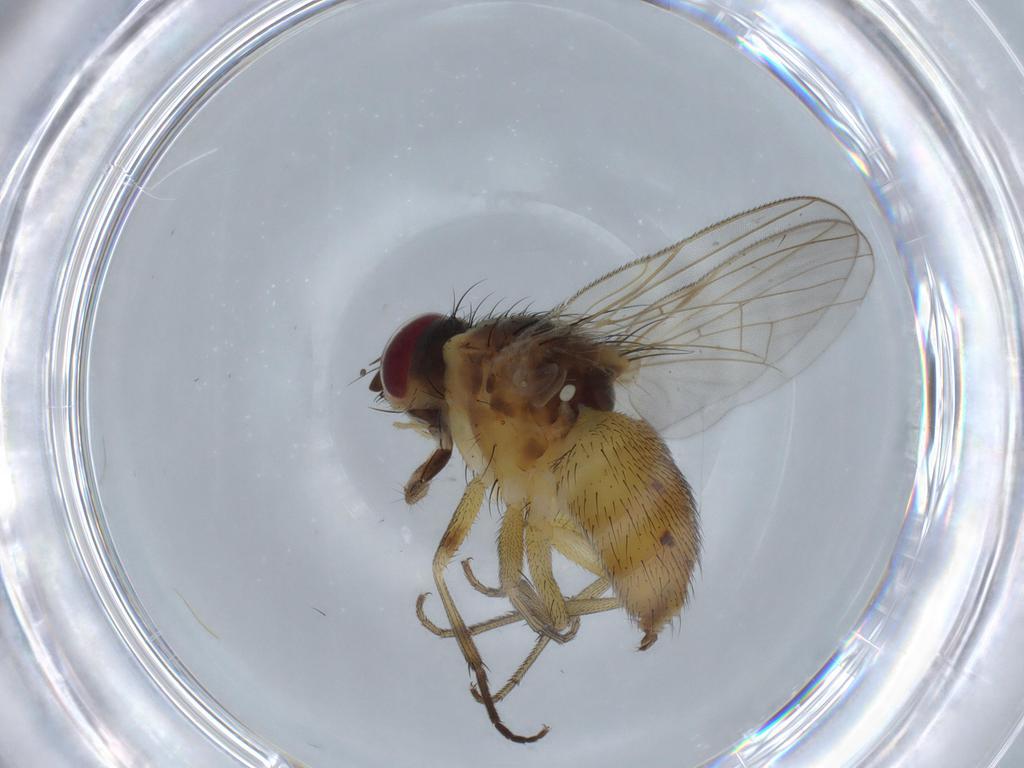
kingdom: Animalia
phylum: Arthropoda
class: Insecta
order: Diptera
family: Muscidae
